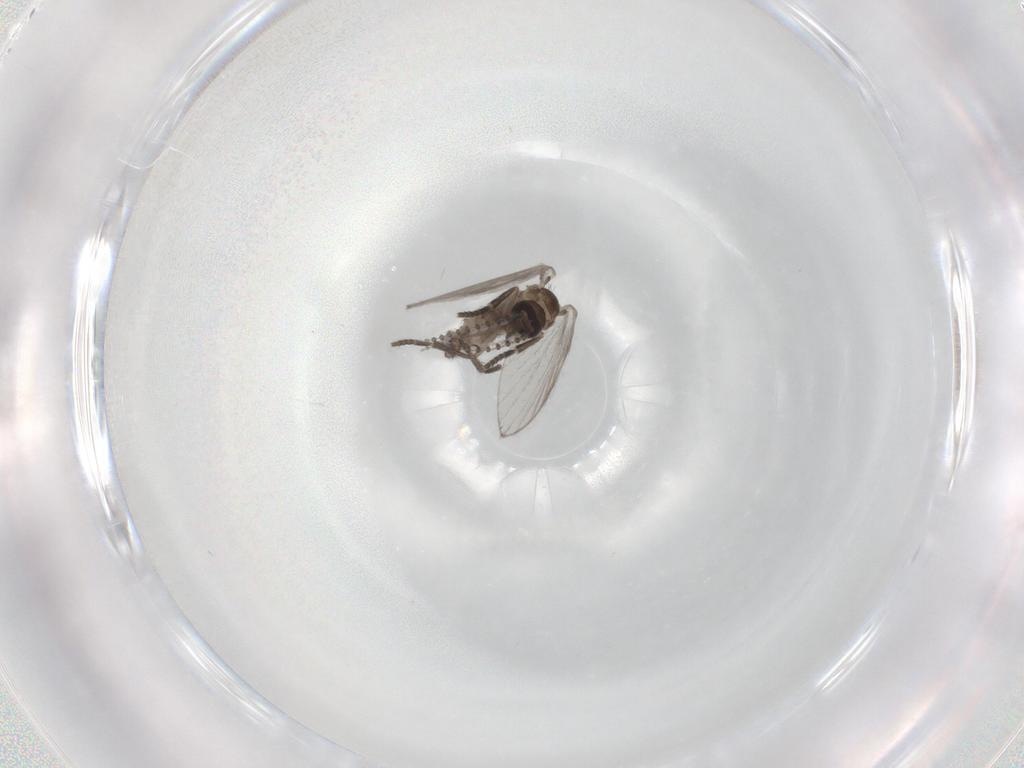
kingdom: Animalia
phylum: Arthropoda
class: Insecta
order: Diptera
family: Psychodidae
